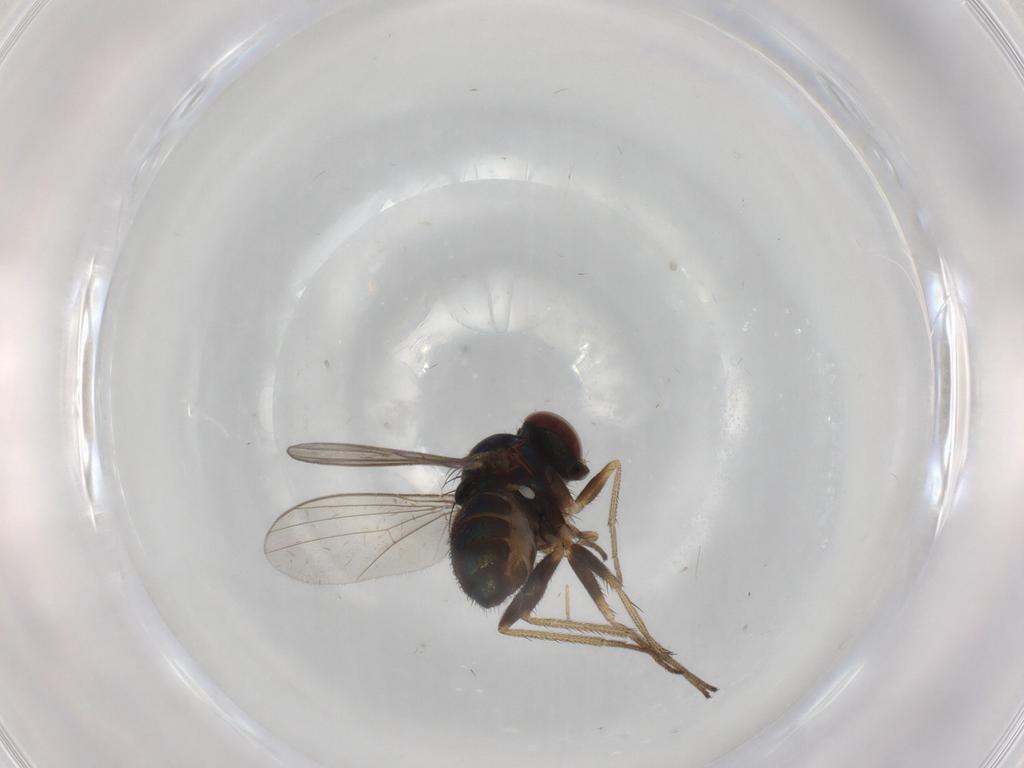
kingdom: Animalia
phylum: Arthropoda
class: Insecta
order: Diptera
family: Dolichopodidae
